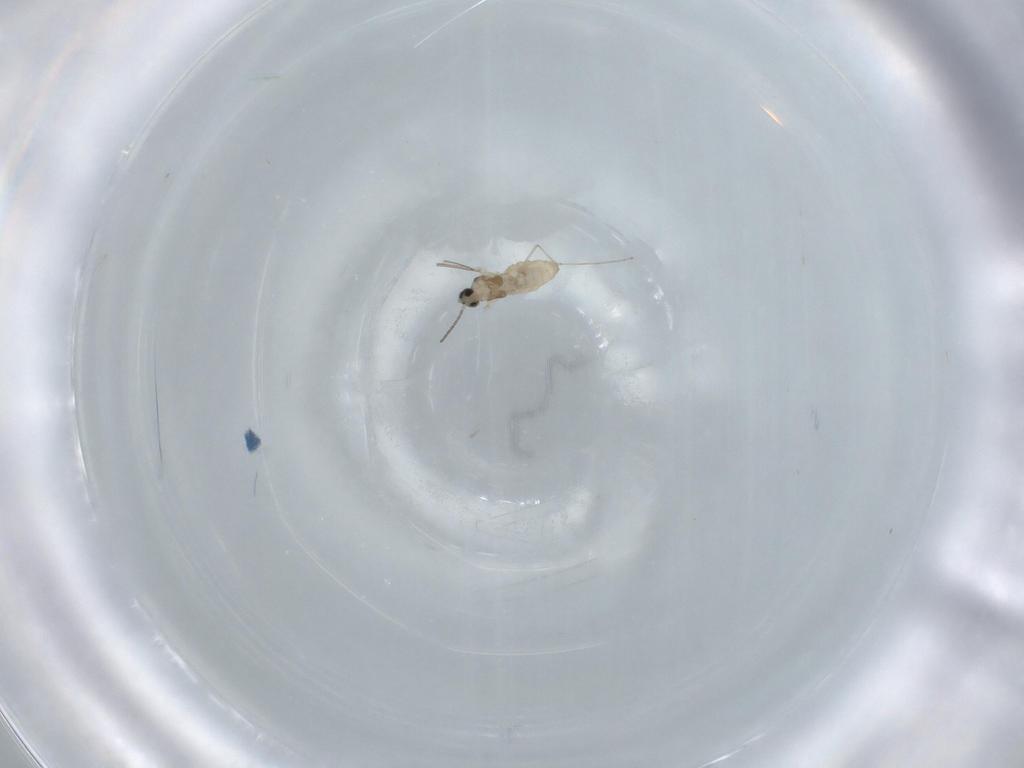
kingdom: Animalia
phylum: Arthropoda
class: Insecta
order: Diptera
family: Cecidomyiidae
